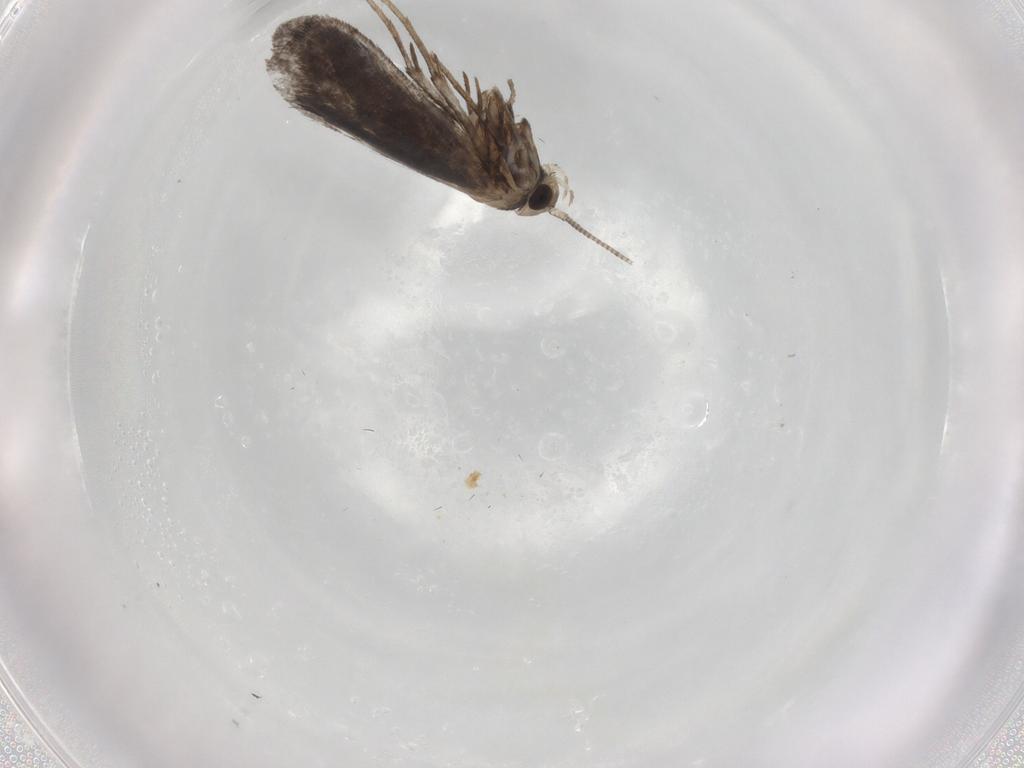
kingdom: Animalia
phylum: Arthropoda
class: Insecta
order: Lepidoptera
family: Nymphalidae
